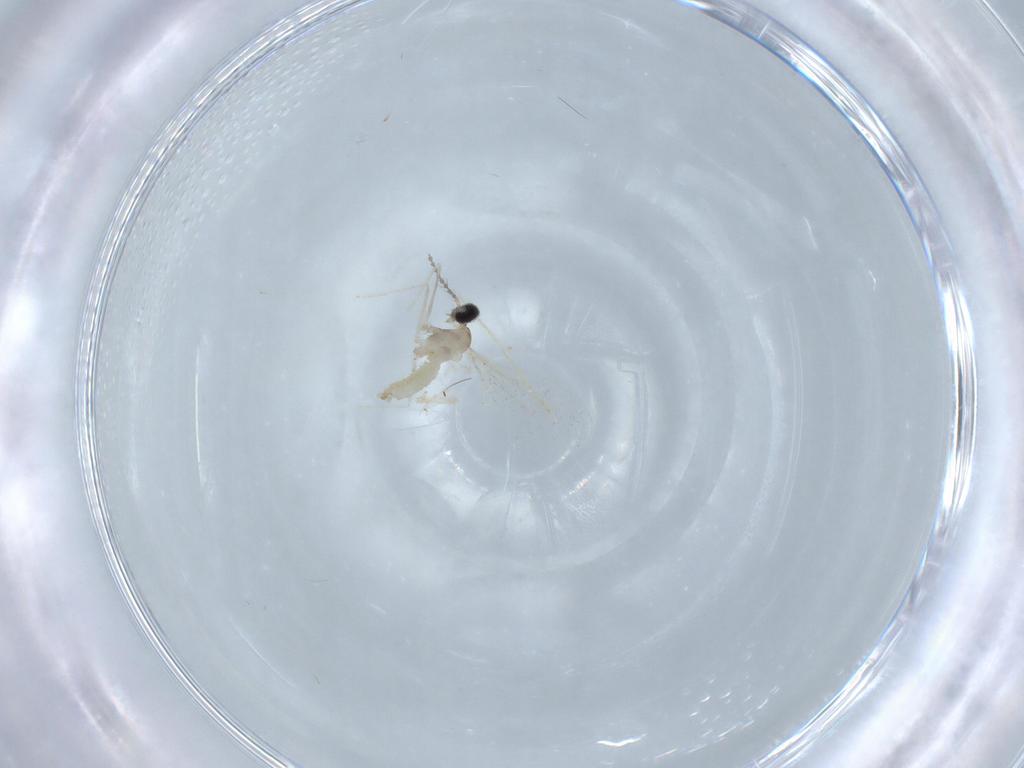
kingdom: Animalia
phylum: Arthropoda
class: Insecta
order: Diptera
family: Cecidomyiidae
